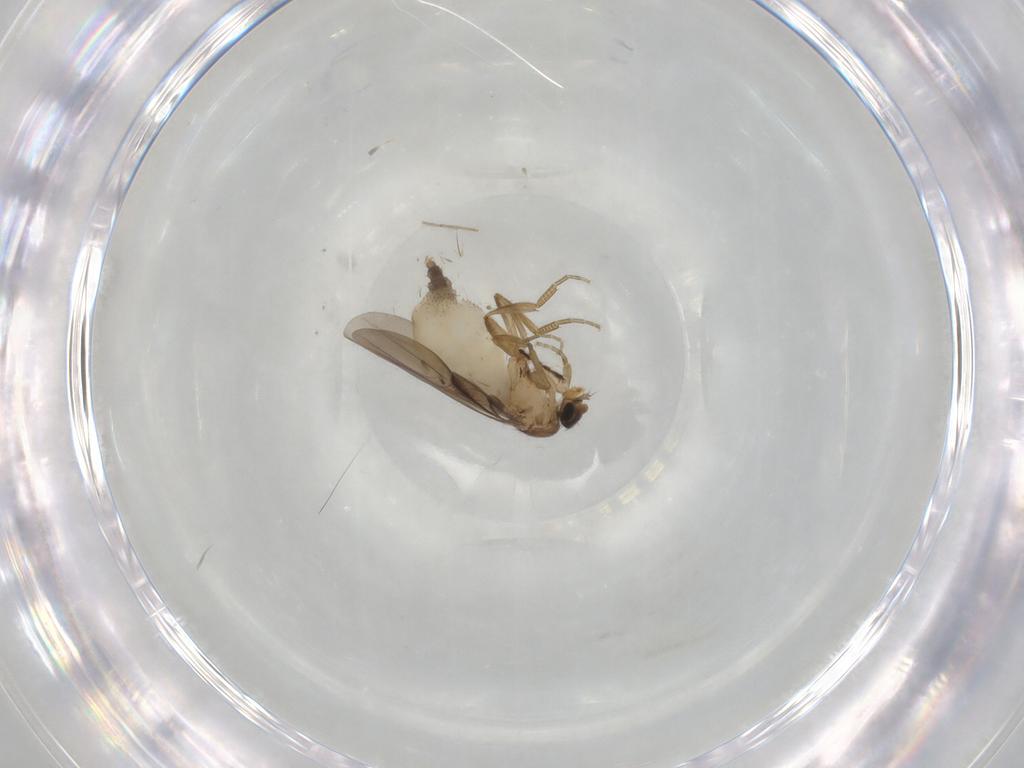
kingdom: Animalia
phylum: Arthropoda
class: Insecta
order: Diptera
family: Phoridae
